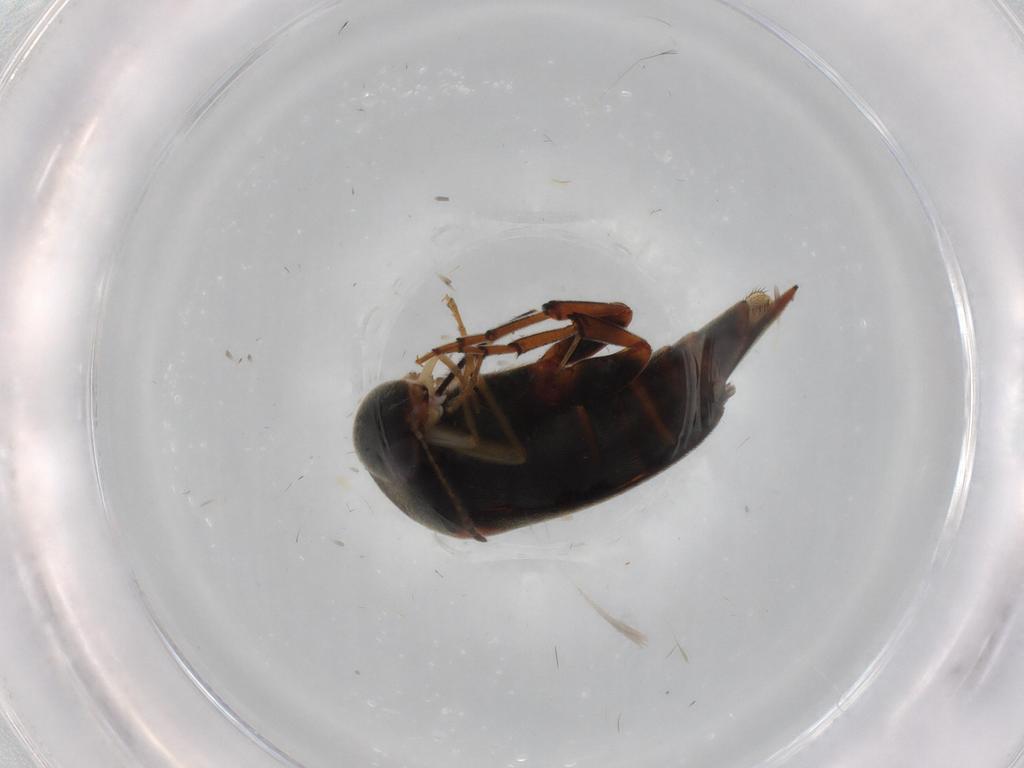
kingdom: Animalia
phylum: Arthropoda
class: Insecta
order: Coleoptera
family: Mordellidae
